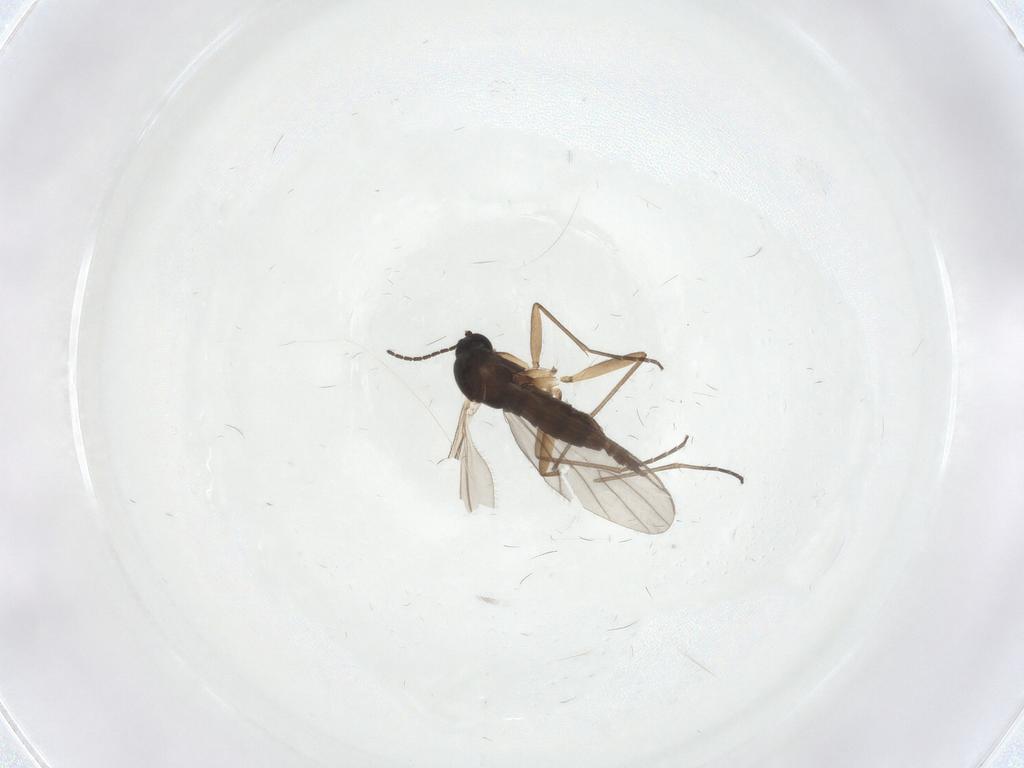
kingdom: Animalia
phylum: Arthropoda
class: Insecta
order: Diptera
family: Sciaridae
